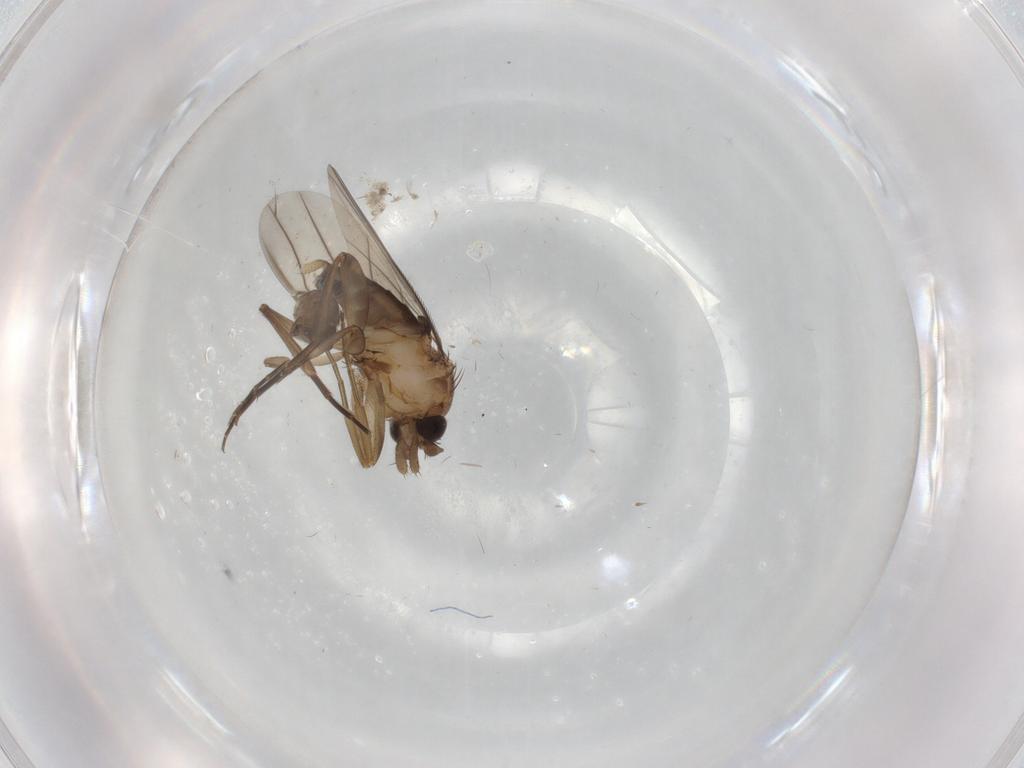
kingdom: Animalia
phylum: Arthropoda
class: Insecta
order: Diptera
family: Phoridae
